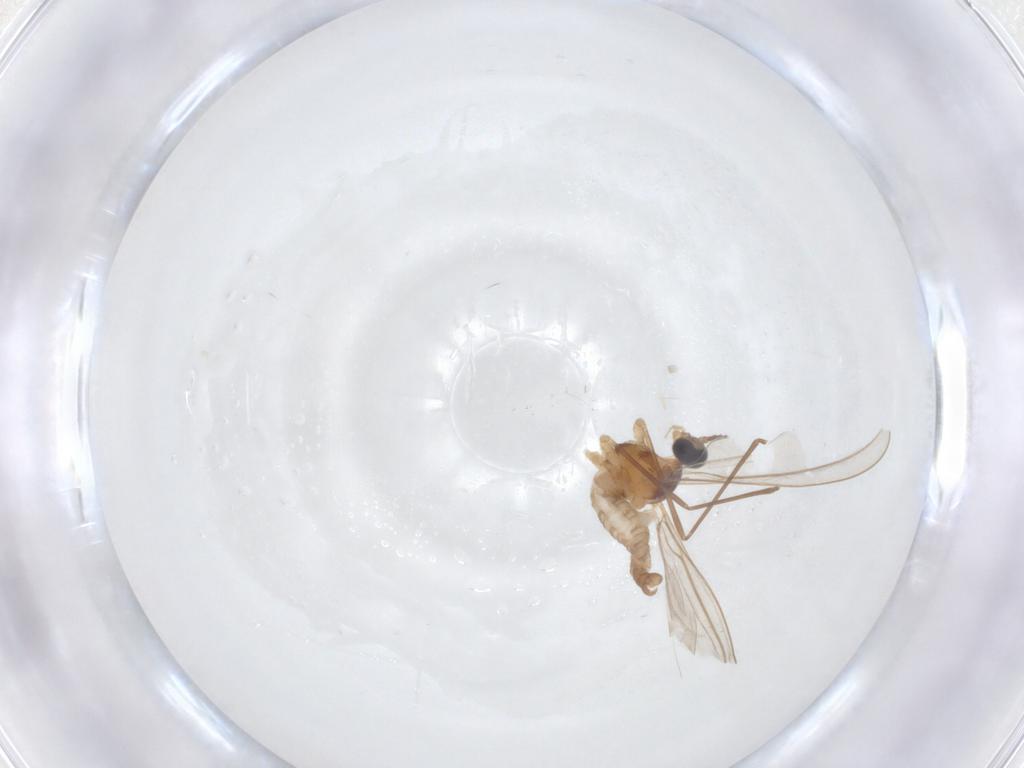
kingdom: Animalia
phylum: Arthropoda
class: Insecta
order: Diptera
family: Cecidomyiidae
